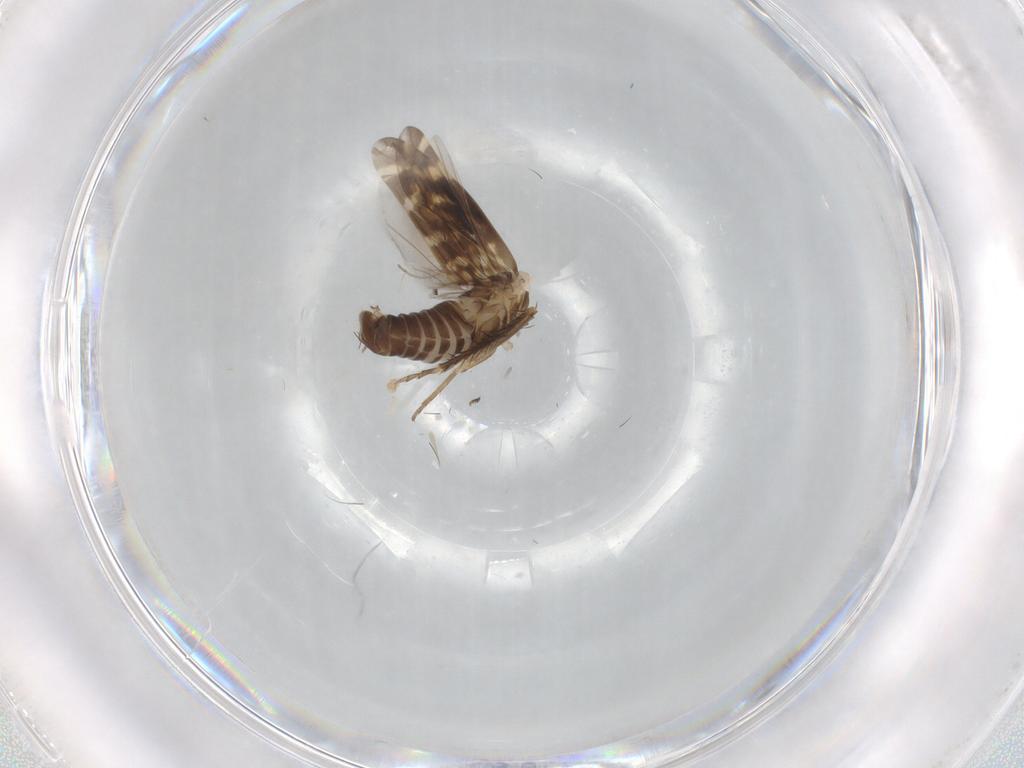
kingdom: Animalia
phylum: Arthropoda
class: Insecta
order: Hemiptera
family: Cicadellidae
